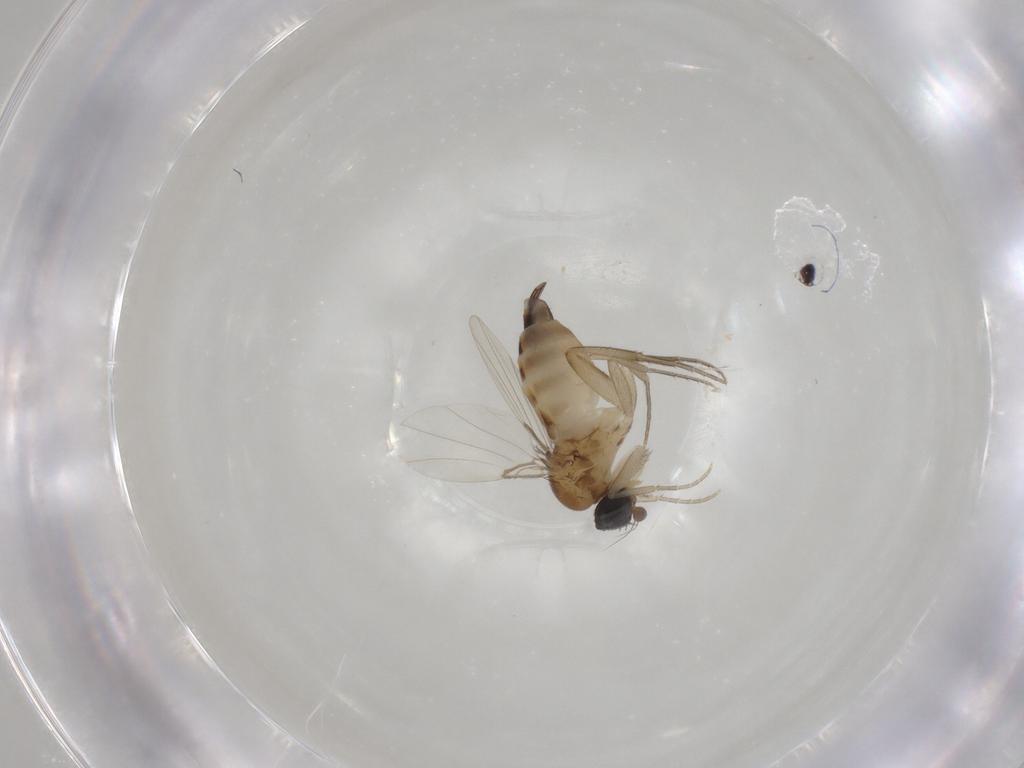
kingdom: Animalia
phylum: Arthropoda
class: Insecta
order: Diptera
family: Phoridae
